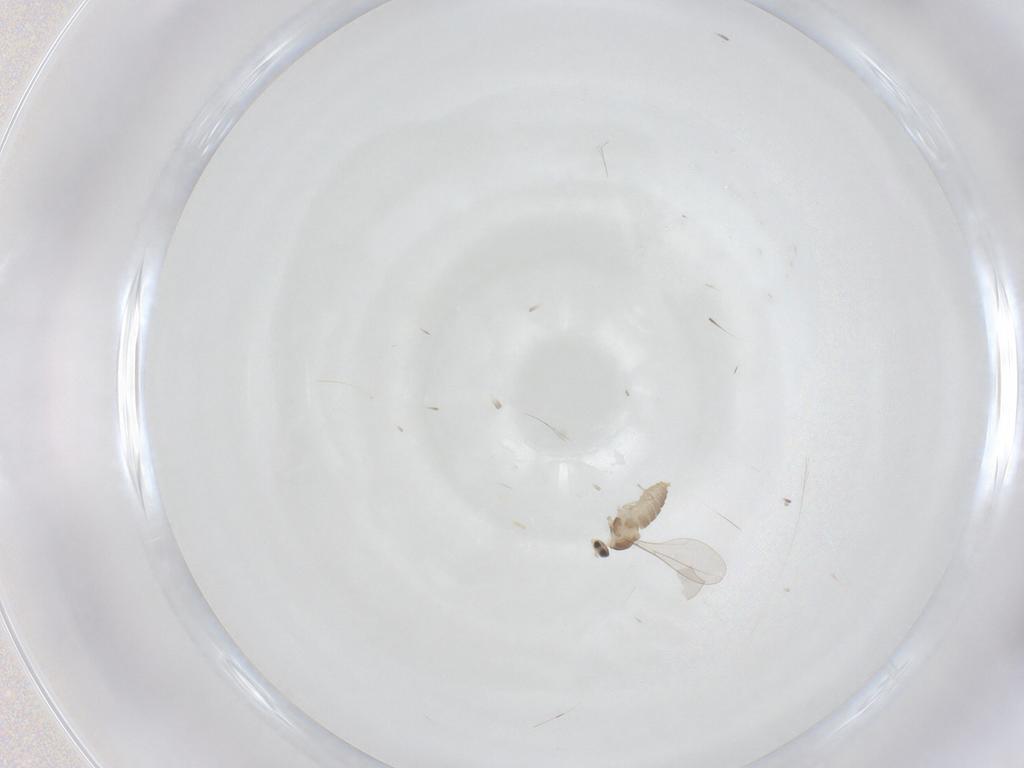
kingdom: Animalia
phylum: Arthropoda
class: Insecta
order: Diptera
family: Cecidomyiidae
